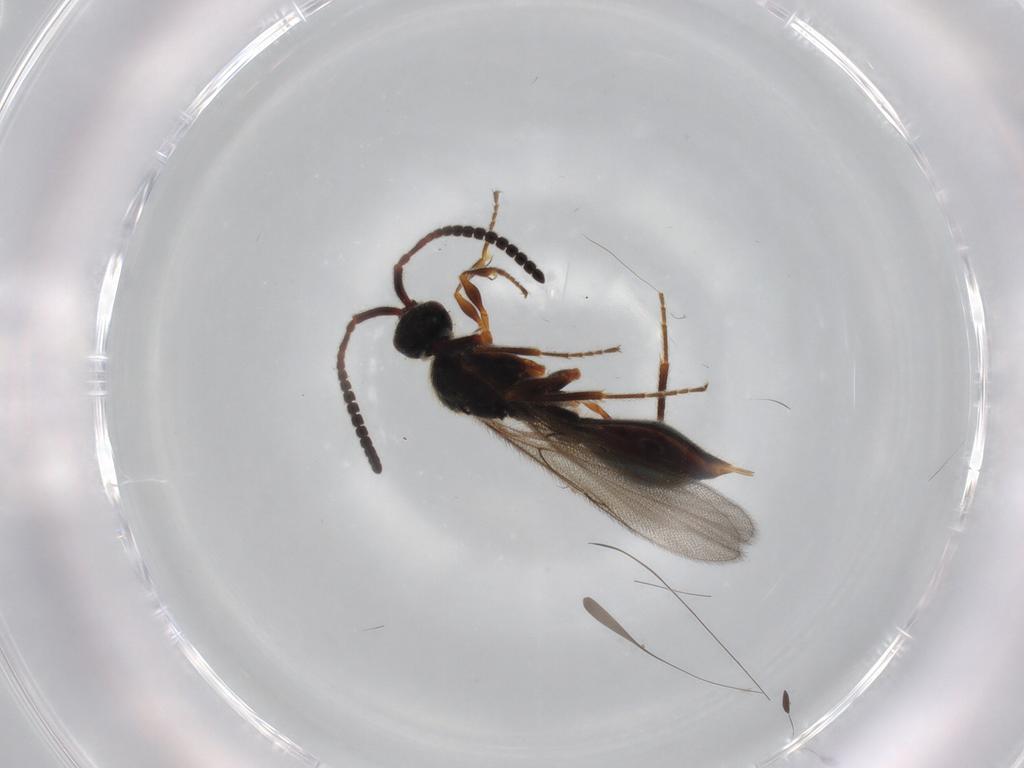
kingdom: Animalia
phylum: Arthropoda
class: Insecta
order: Hymenoptera
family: Diapriidae
